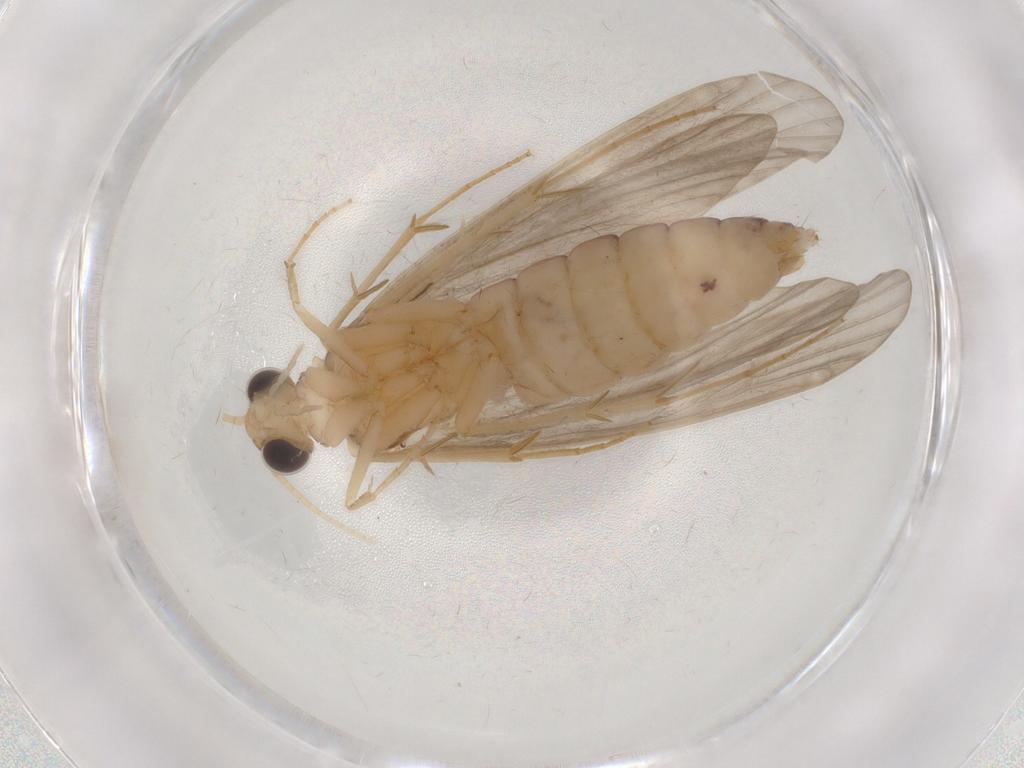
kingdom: Animalia
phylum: Arthropoda
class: Insecta
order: Trichoptera
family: Ecnomidae
